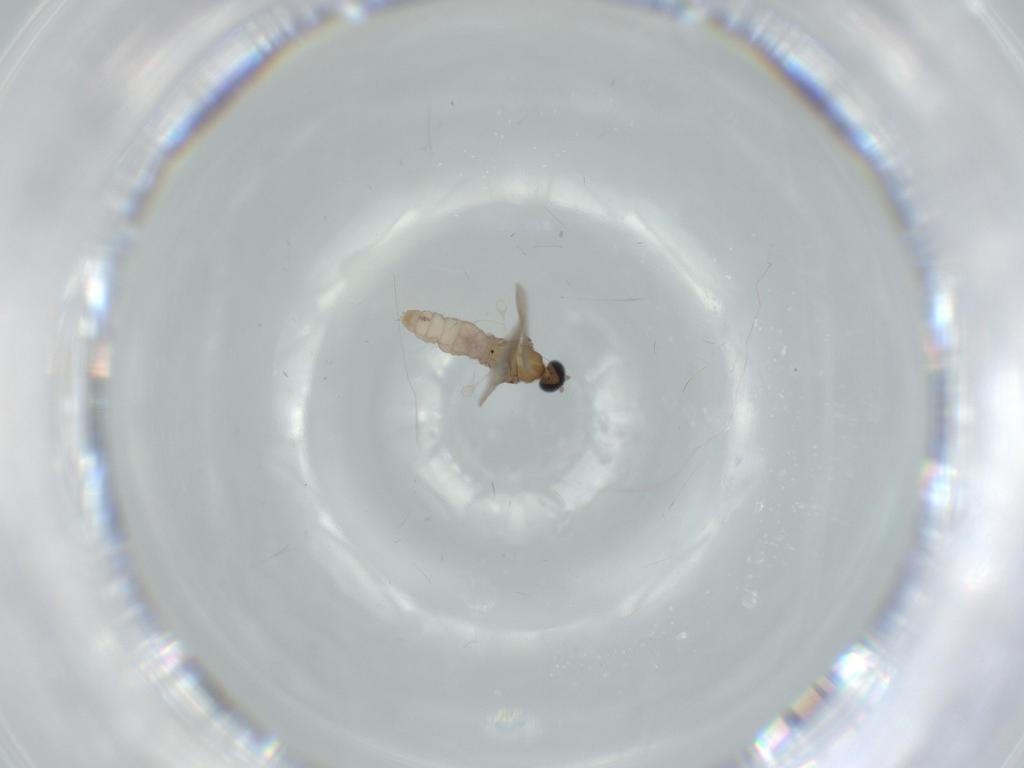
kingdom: Animalia
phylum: Arthropoda
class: Insecta
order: Diptera
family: Cecidomyiidae
